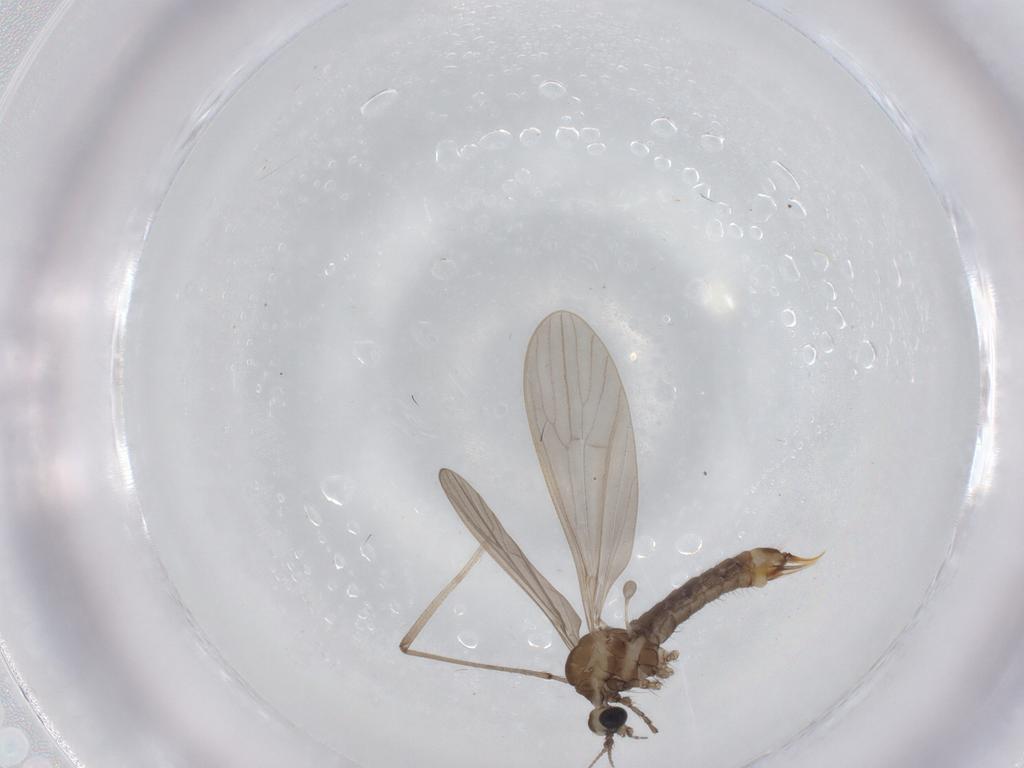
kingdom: Animalia
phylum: Arthropoda
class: Insecta
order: Diptera
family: Limoniidae
